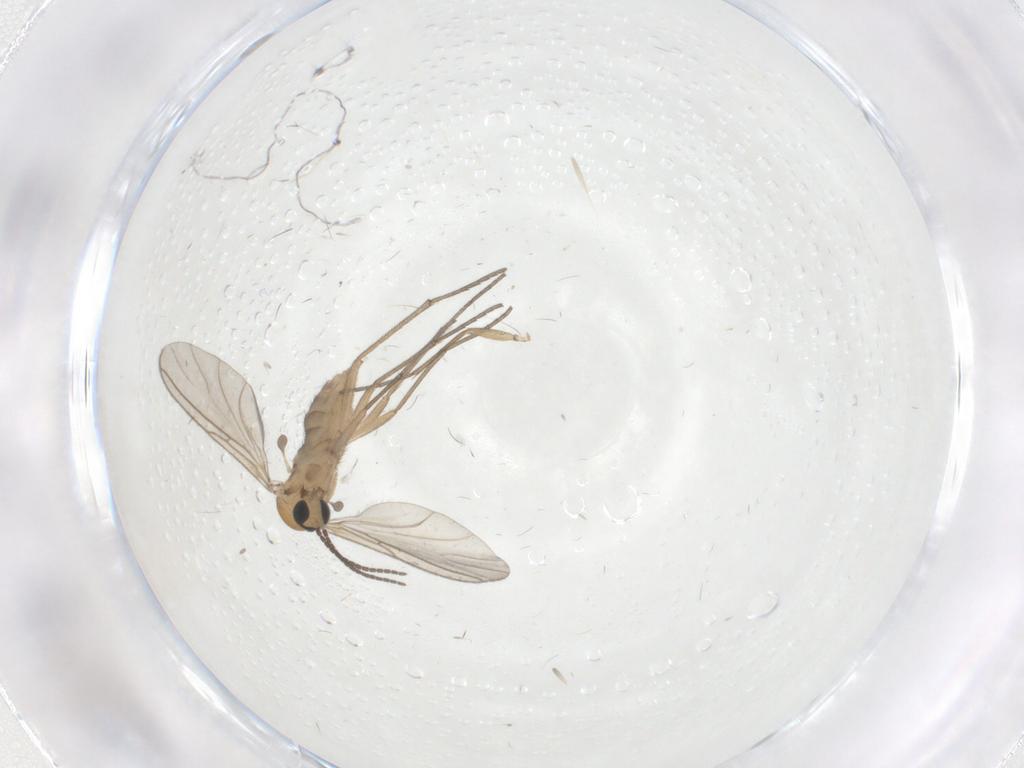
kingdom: Animalia
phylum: Arthropoda
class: Insecta
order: Diptera
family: Sciaridae
